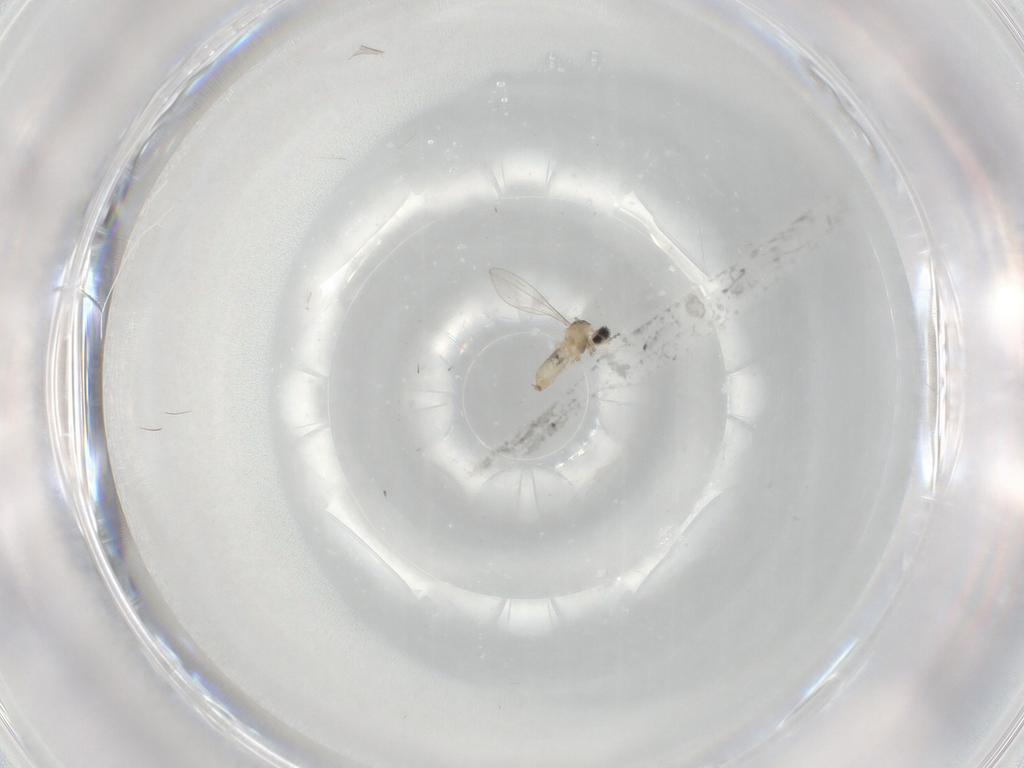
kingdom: Animalia
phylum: Arthropoda
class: Insecta
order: Diptera
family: Cecidomyiidae
